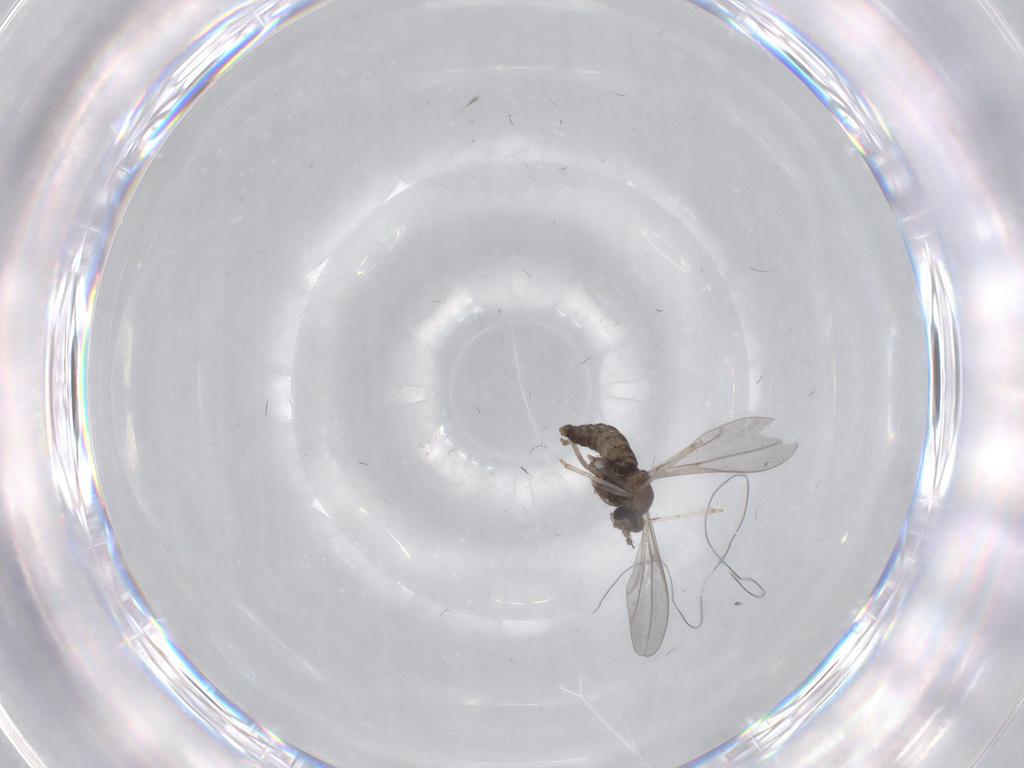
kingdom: Animalia
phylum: Arthropoda
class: Insecta
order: Diptera
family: Cecidomyiidae
